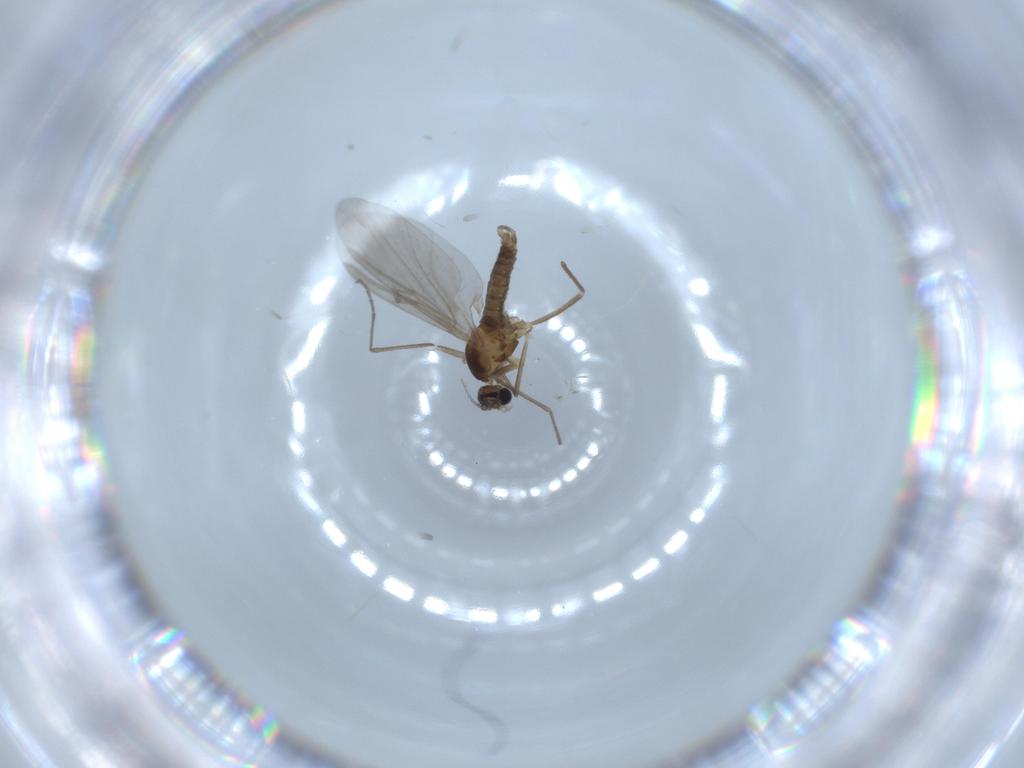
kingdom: Animalia
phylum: Arthropoda
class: Insecta
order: Diptera
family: Sciaridae
